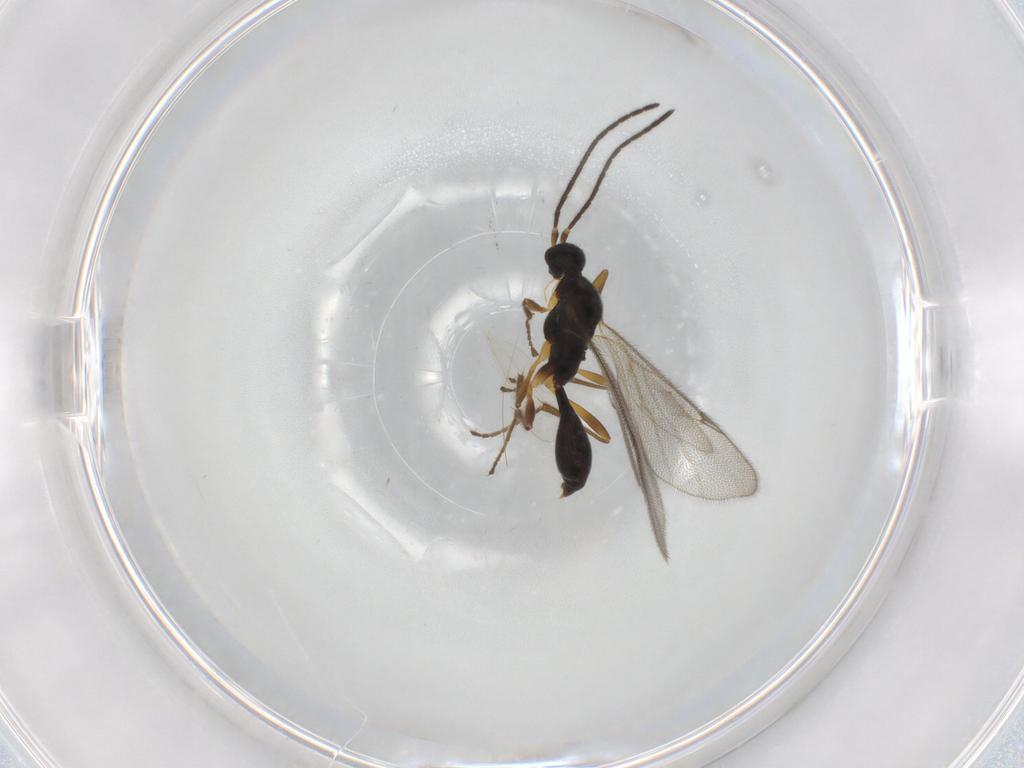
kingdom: Animalia
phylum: Arthropoda
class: Insecta
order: Hymenoptera
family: Proctotrupidae
